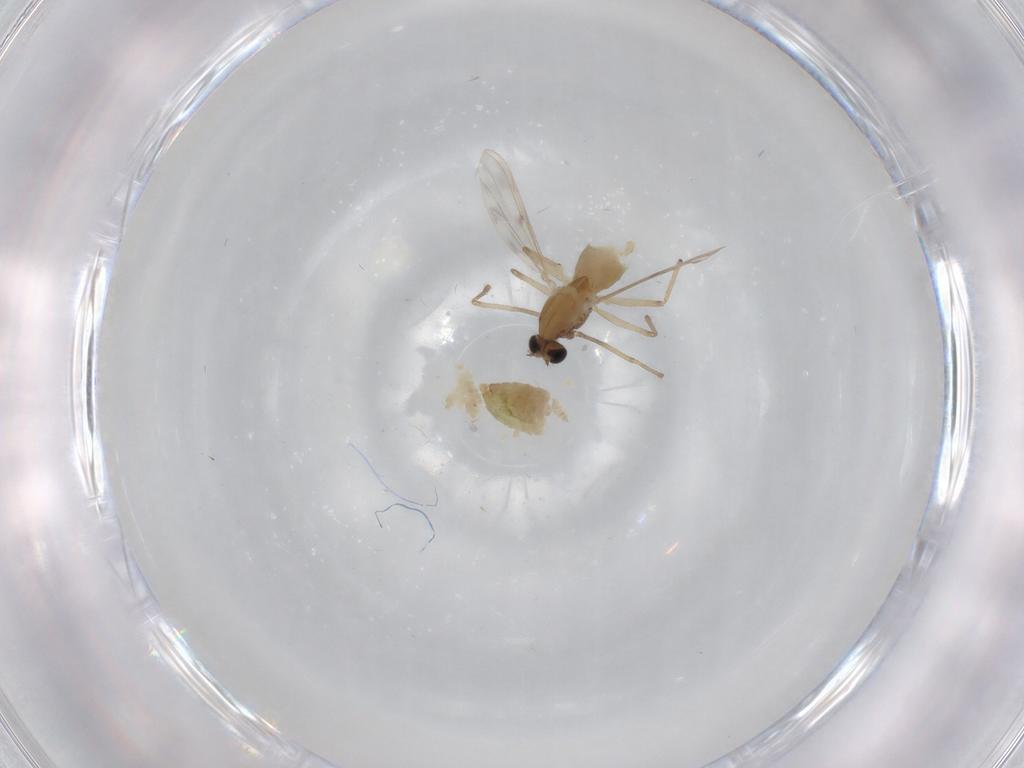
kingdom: Animalia
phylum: Arthropoda
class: Insecta
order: Diptera
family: Chironomidae
